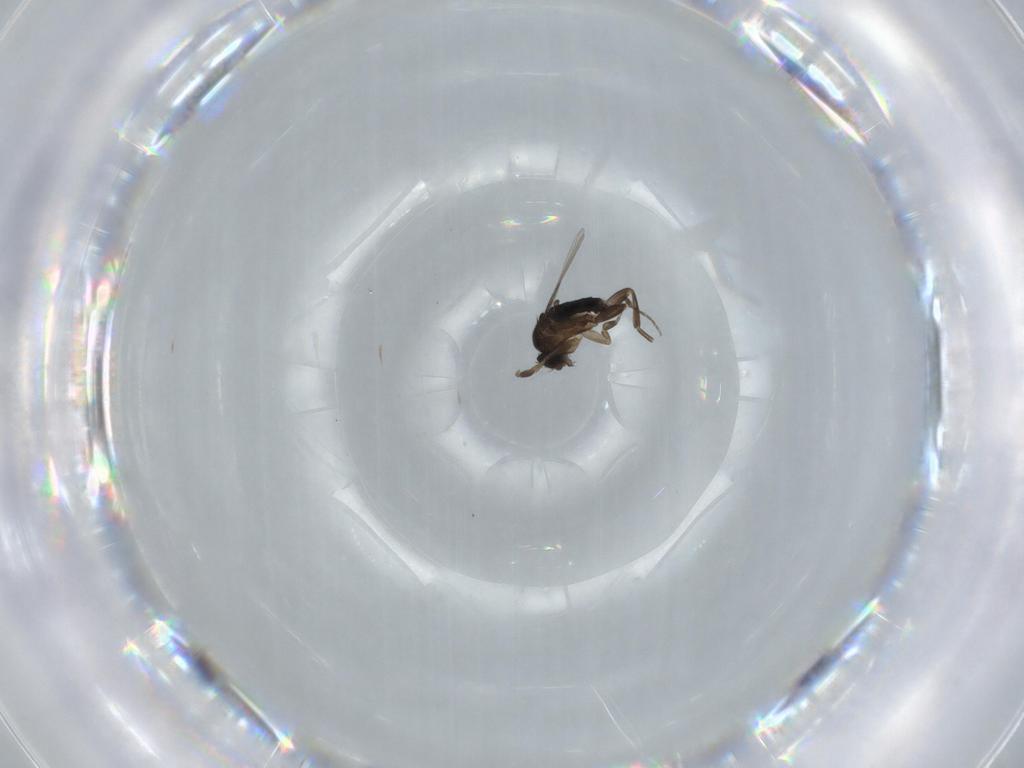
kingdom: Animalia
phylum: Arthropoda
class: Insecta
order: Diptera
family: Phoridae
